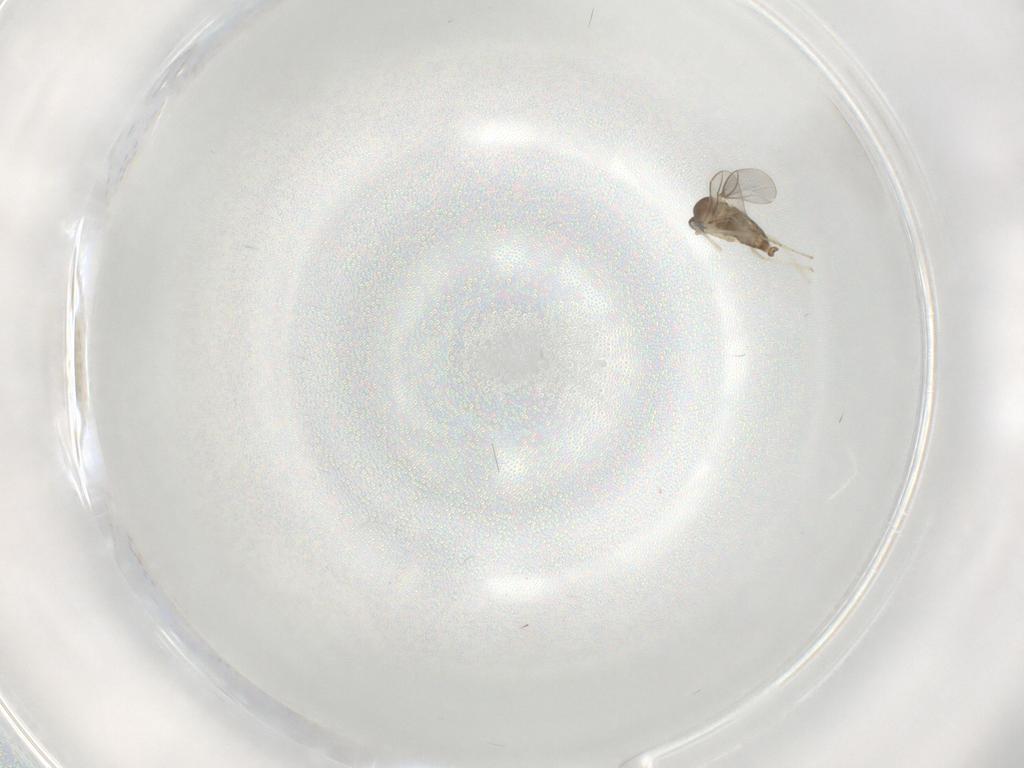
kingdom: Animalia
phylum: Arthropoda
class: Insecta
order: Diptera
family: Cecidomyiidae
